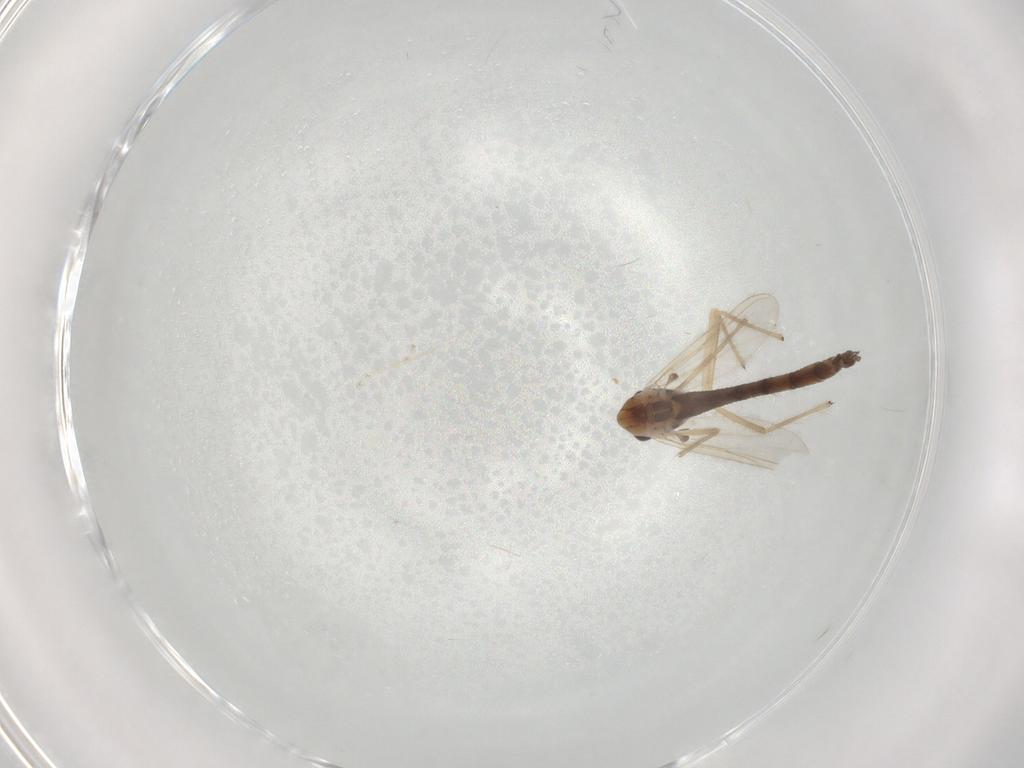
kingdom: Animalia
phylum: Arthropoda
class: Insecta
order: Diptera
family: Chironomidae
